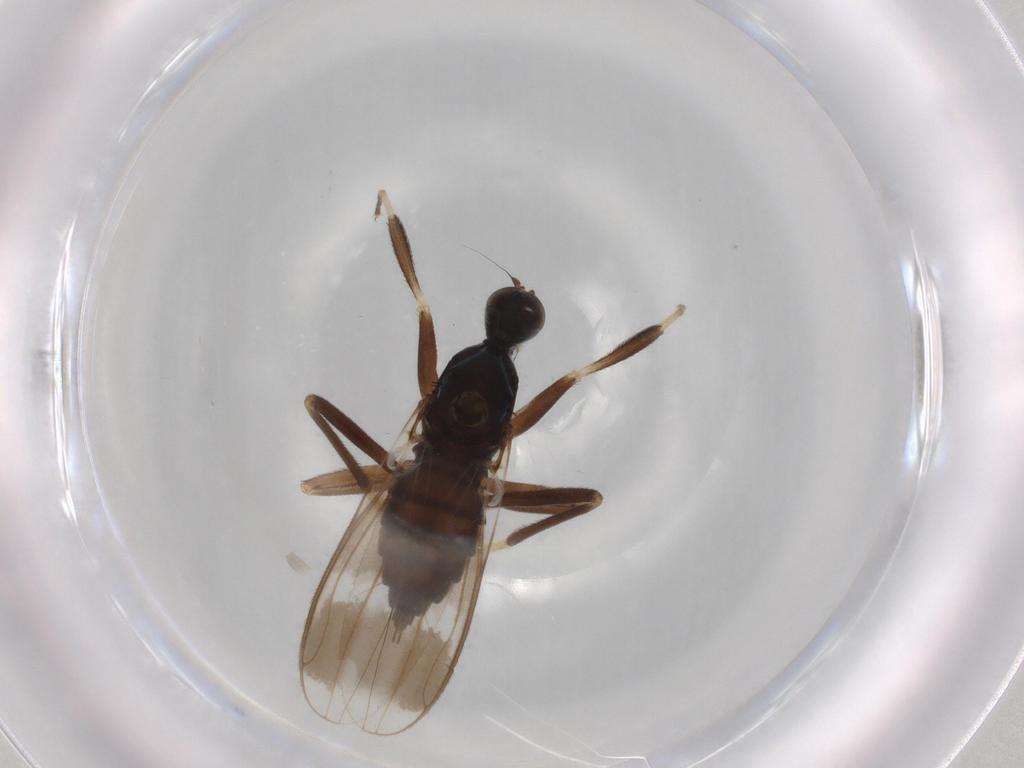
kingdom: Animalia
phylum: Arthropoda
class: Insecta
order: Diptera
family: Hybotidae
